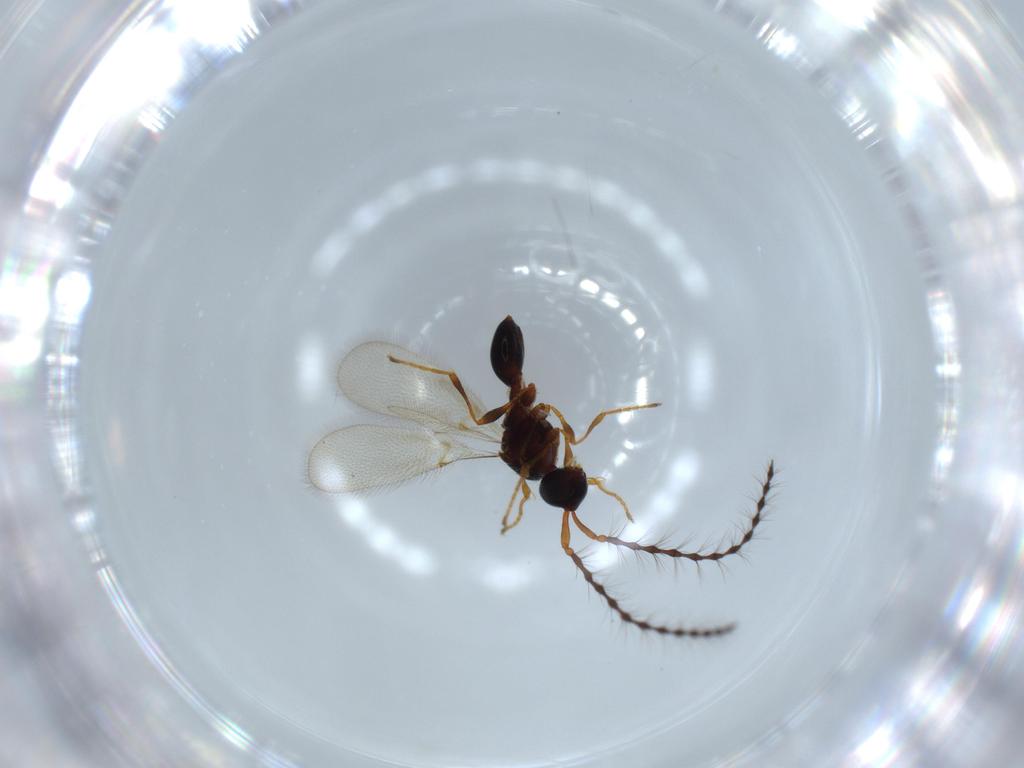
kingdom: Animalia
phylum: Arthropoda
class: Insecta
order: Hymenoptera
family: Diapriidae
